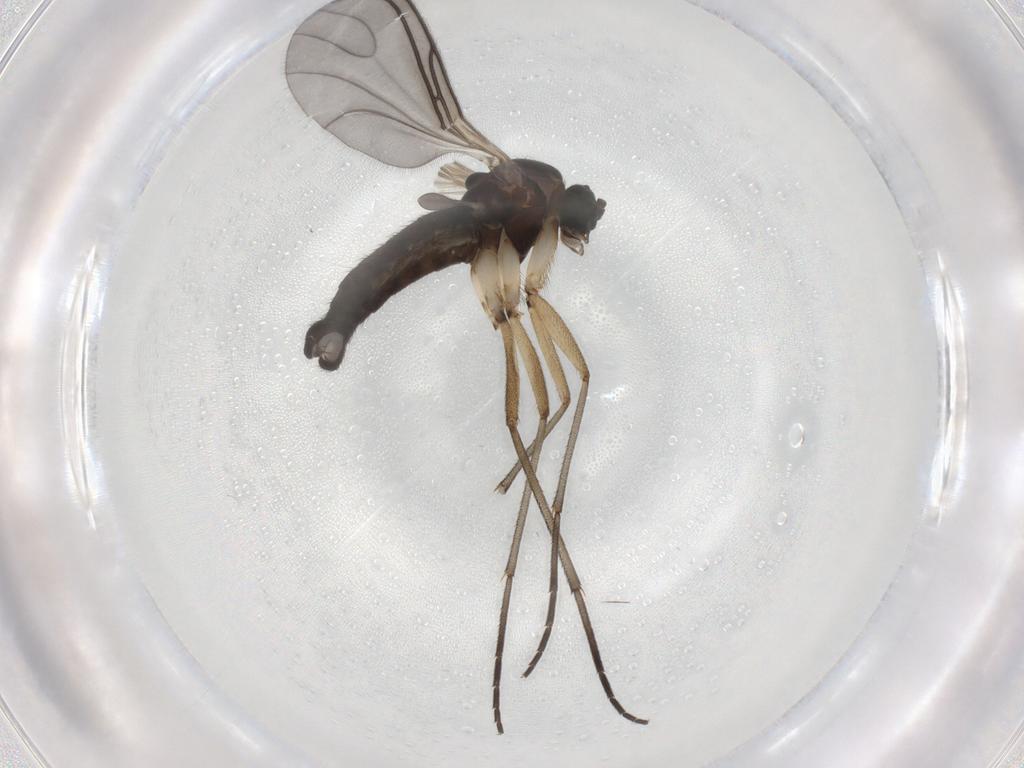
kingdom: Animalia
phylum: Arthropoda
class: Insecta
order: Diptera
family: Sciaridae
